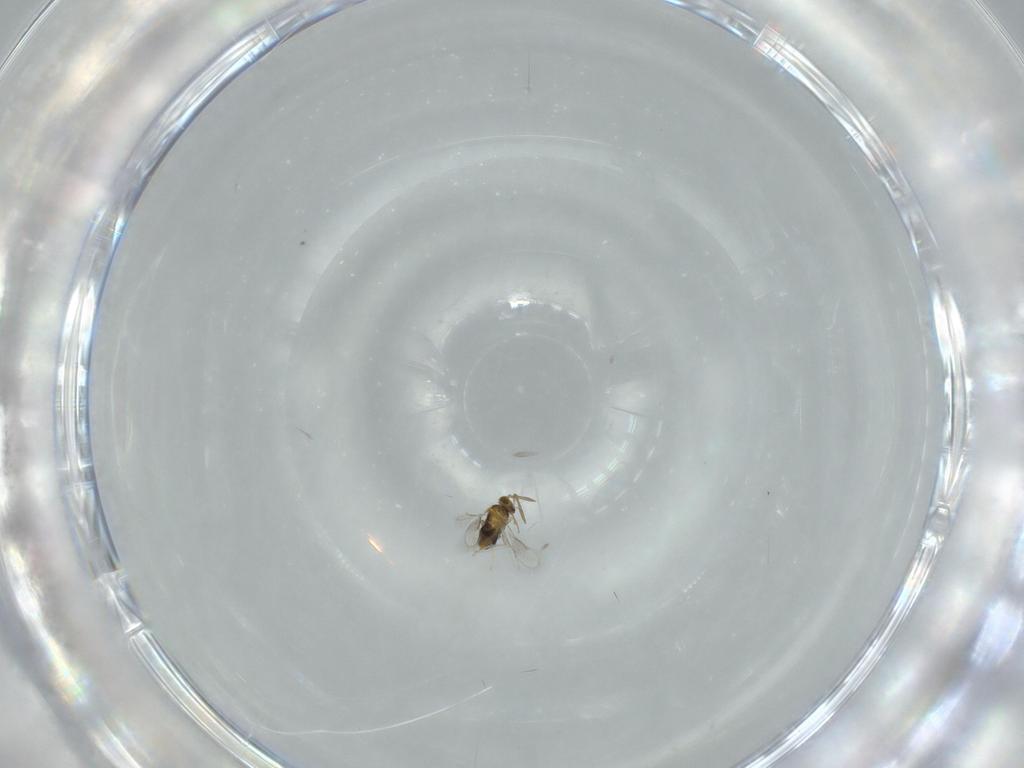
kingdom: Animalia
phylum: Arthropoda
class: Insecta
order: Hymenoptera
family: Aphelinidae
